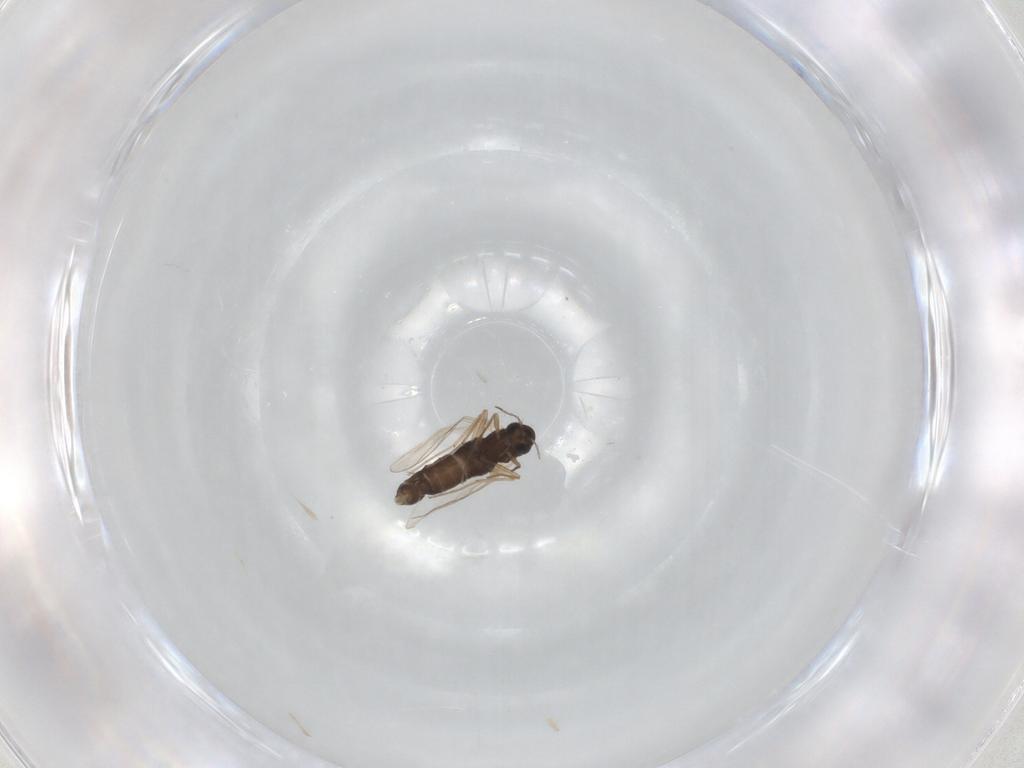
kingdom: Animalia
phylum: Arthropoda
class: Insecta
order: Diptera
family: Chironomidae
